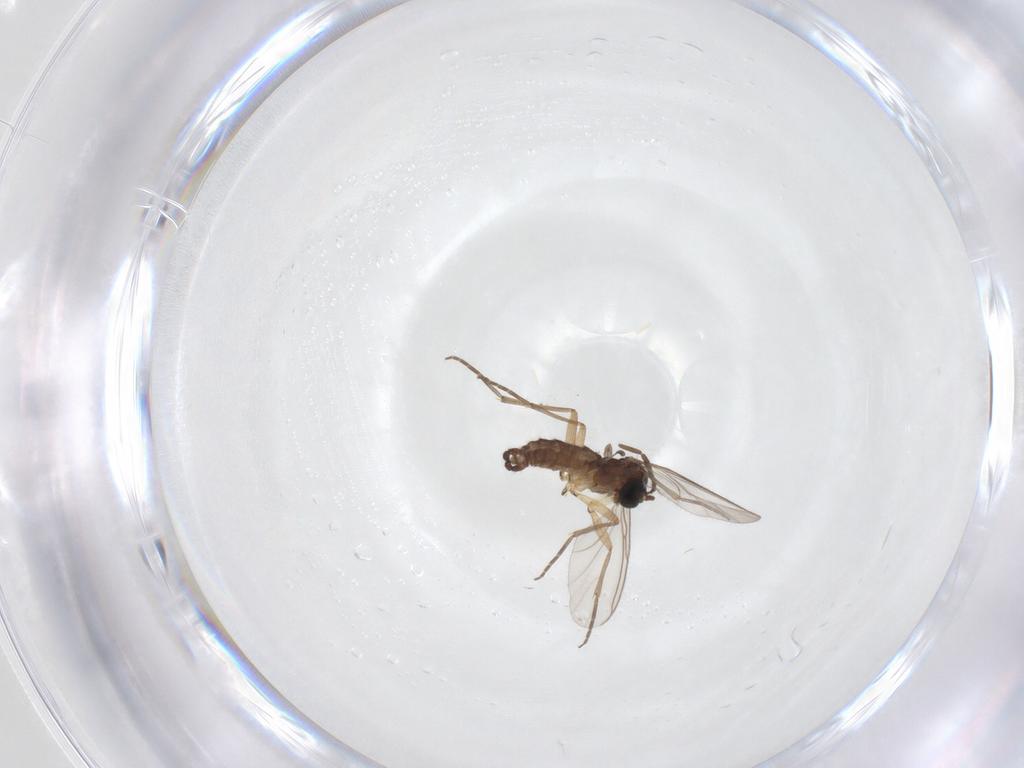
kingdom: Animalia
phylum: Arthropoda
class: Insecta
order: Diptera
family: Sciaridae
